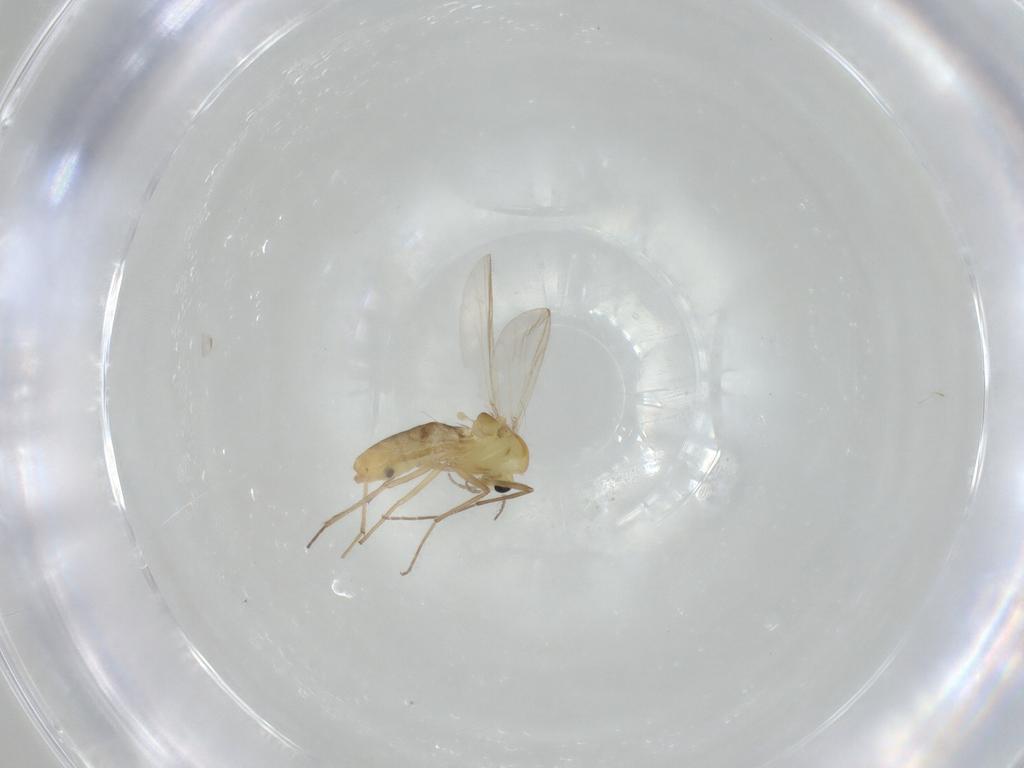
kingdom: Animalia
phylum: Arthropoda
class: Insecta
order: Diptera
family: Chironomidae
